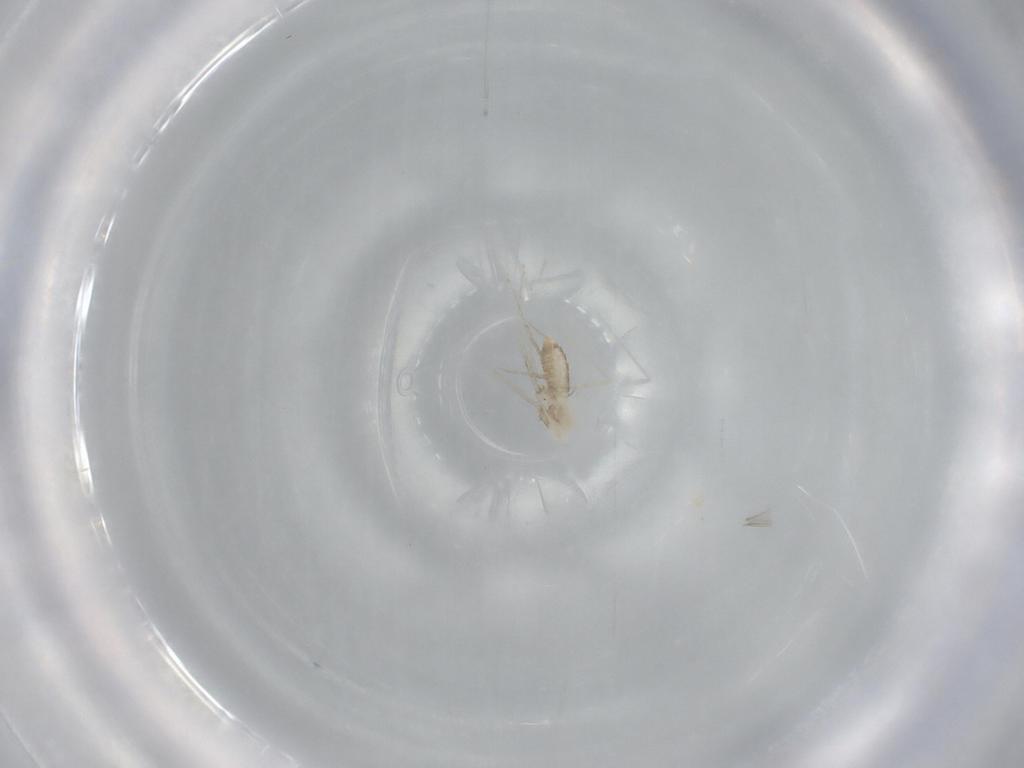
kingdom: Animalia
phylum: Arthropoda
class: Insecta
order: Diptera
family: Cecidomyiidae
